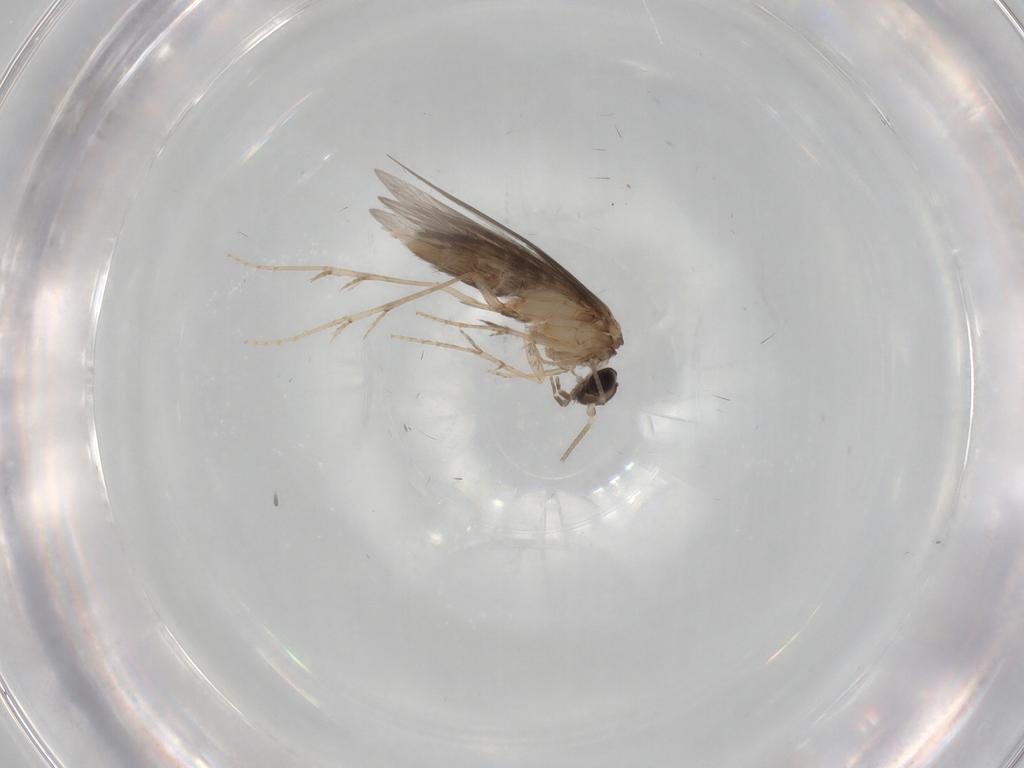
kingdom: Animalia
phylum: Arthropoda
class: Insecta
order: Trichoptera
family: Hydroptilidae
